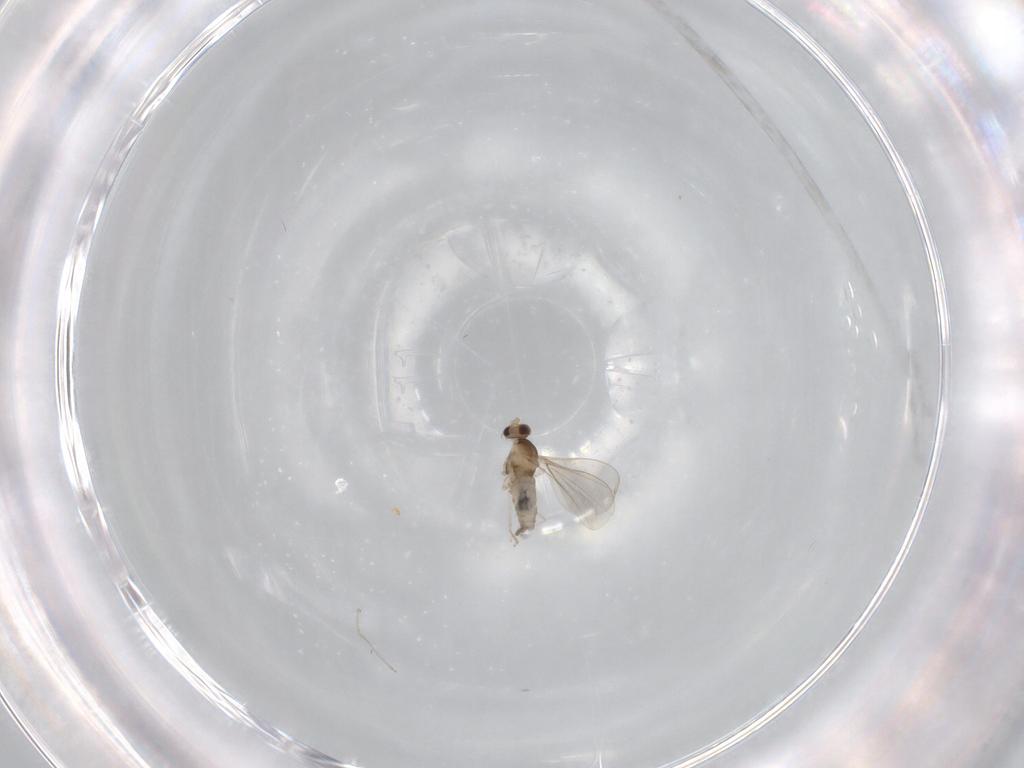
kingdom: Animalia
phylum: Arthropoda
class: Insecta
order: Diptera
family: Cecidomyiidae
